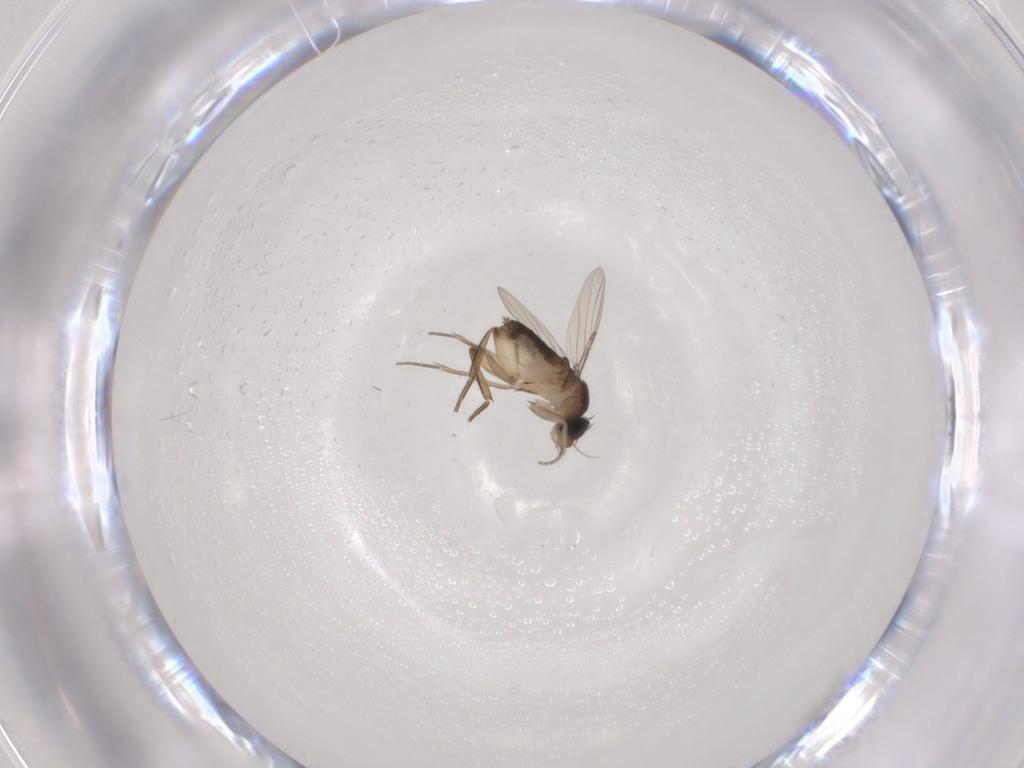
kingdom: Animalia
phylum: Arthropoda
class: Insecta
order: Diptera
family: Phoridae
